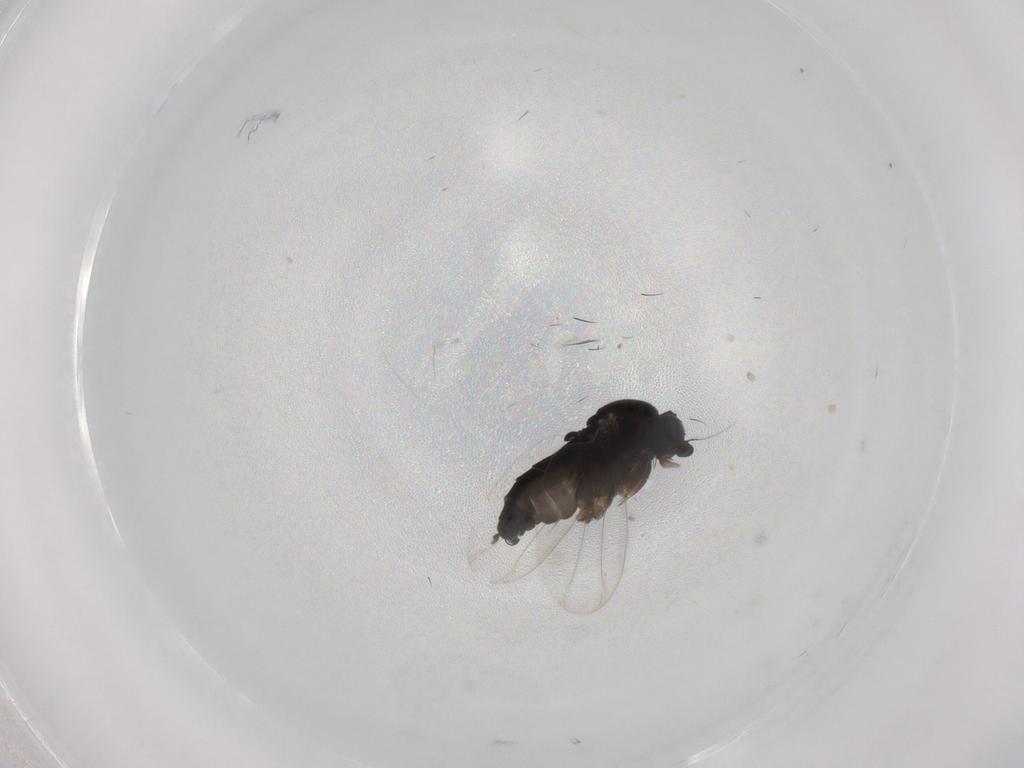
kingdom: Animalia
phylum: Arthropoda
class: Insecta
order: Diptera
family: Phoridae
